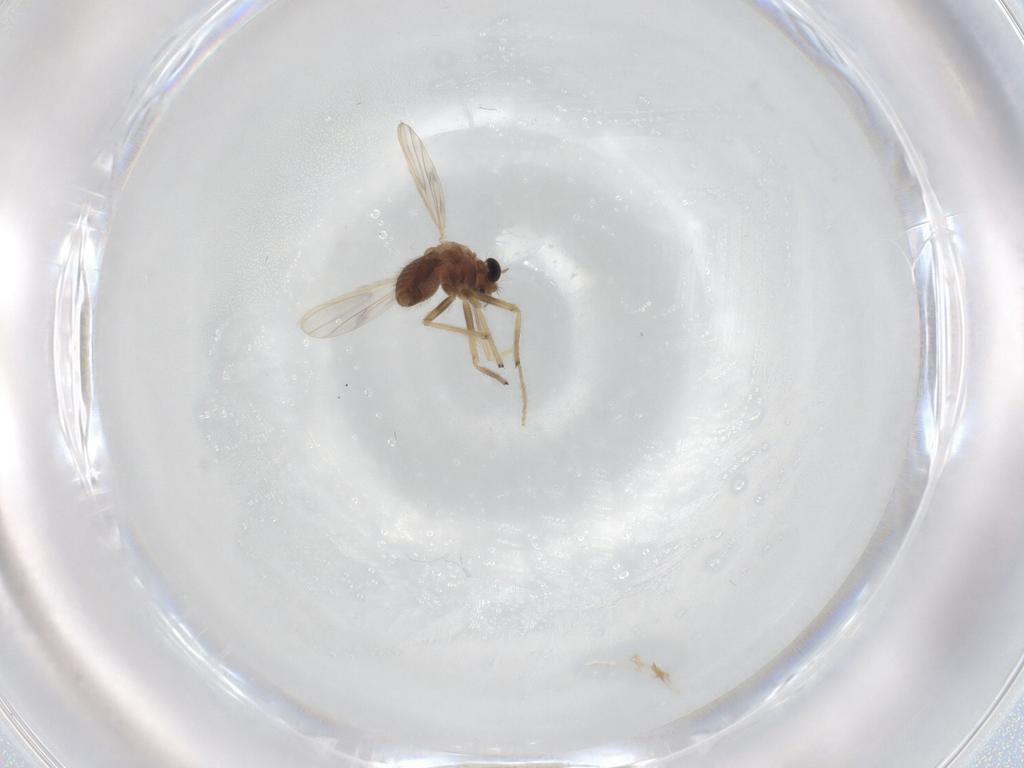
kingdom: Animalia
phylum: Arthropoda
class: Insecta
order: Diptera
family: Chironomidae
